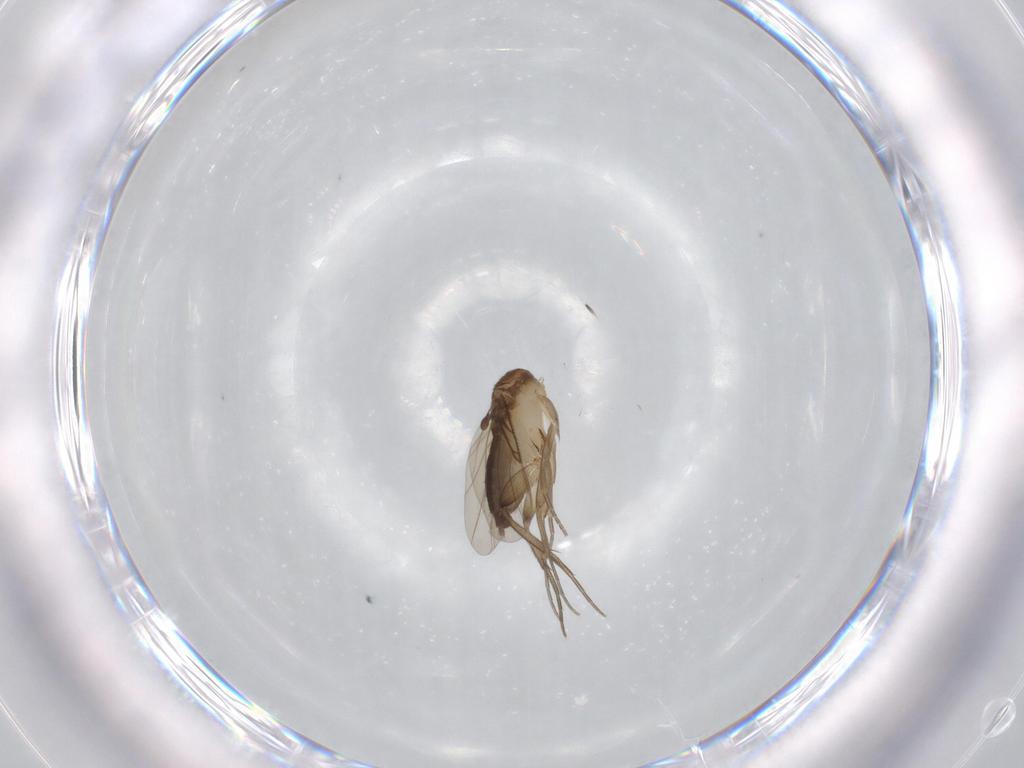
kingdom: Animalia
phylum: Arthropoda
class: Insecta
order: Diptera
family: Phoridae
